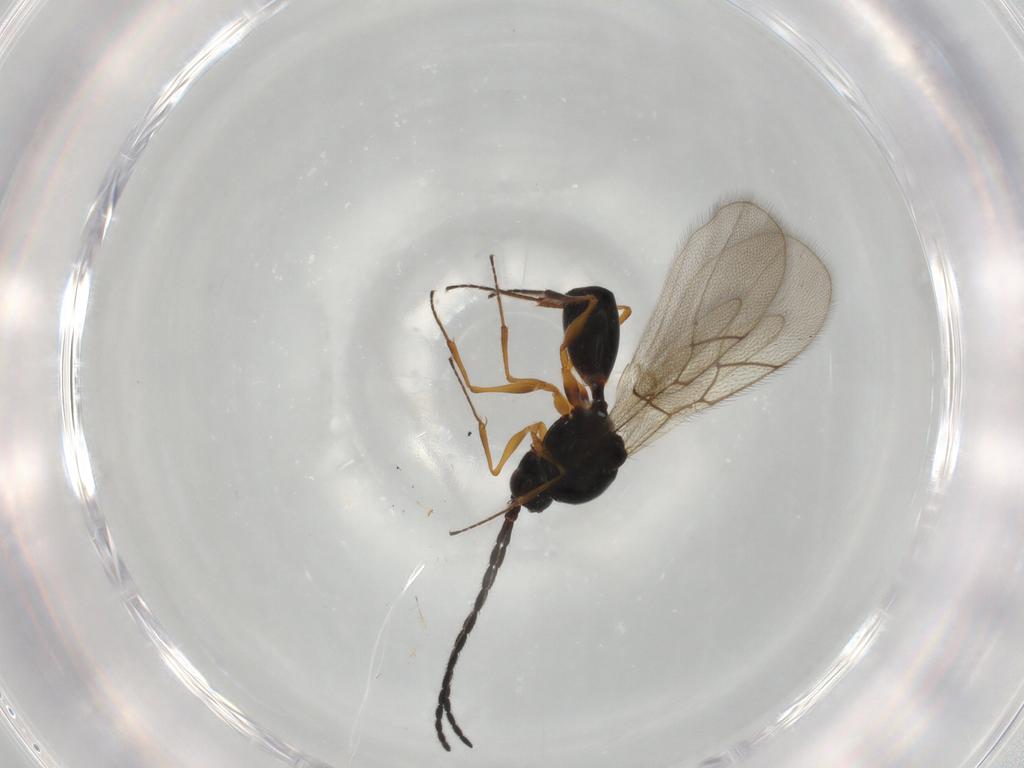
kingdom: Animalia
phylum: Arthropoda
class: Insecta
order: Hymenoptera
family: Figitidae
